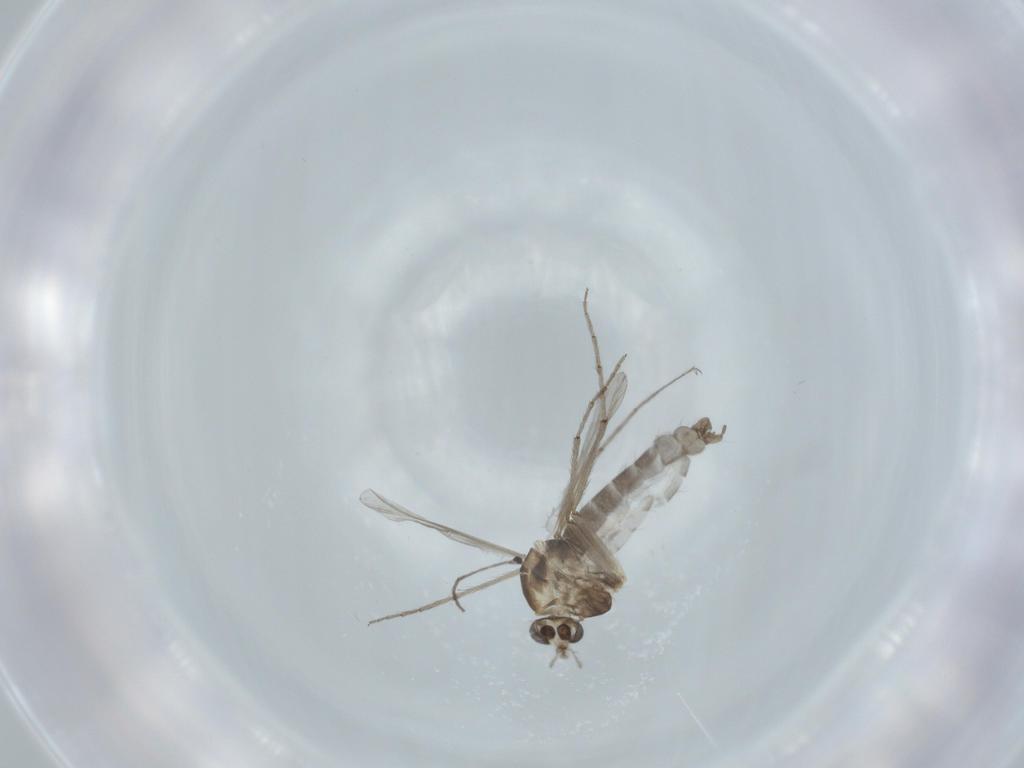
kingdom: Animalia
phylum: Arthropoda
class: Insecta
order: Diptera
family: Chironomidae
